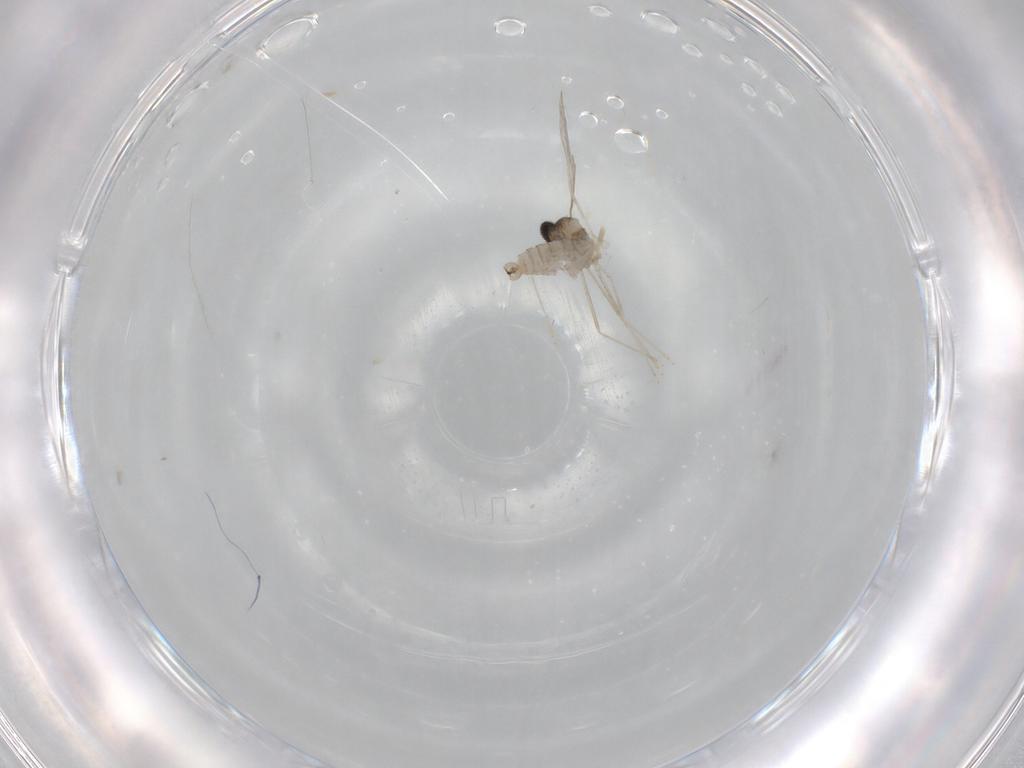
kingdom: Animalia
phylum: Arthropoda
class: Insecta
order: Diptera
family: Cecidomyiidae
